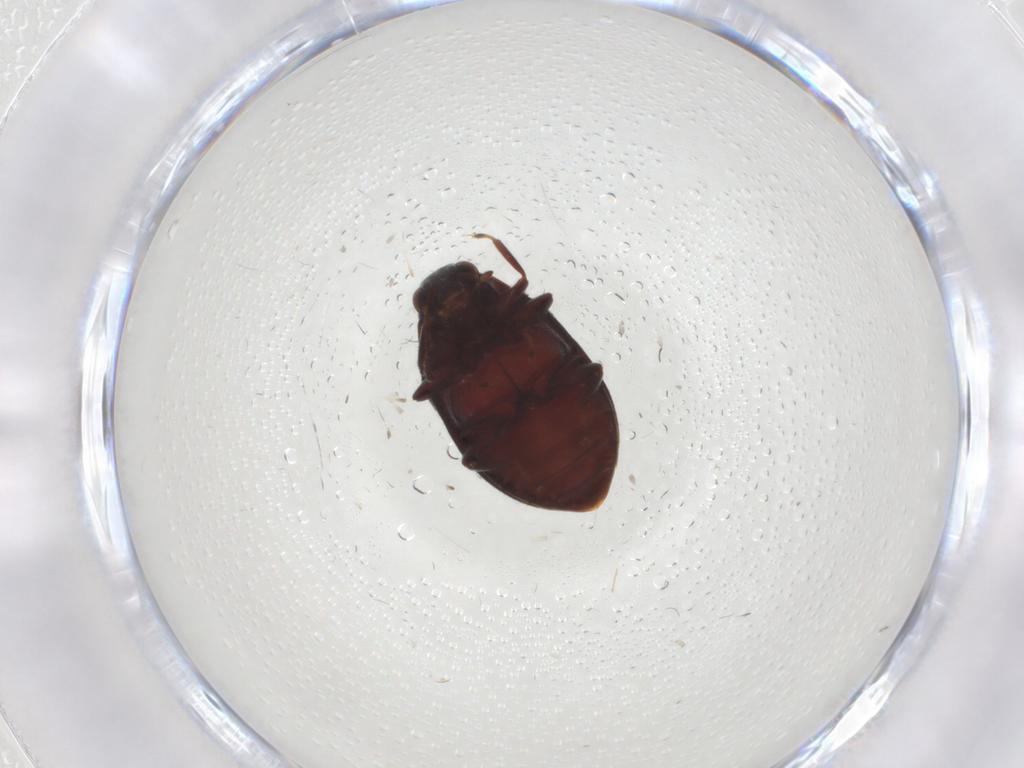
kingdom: Animalia
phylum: Arthropoda
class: Insecta
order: Coleoptera
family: Limnichidae
